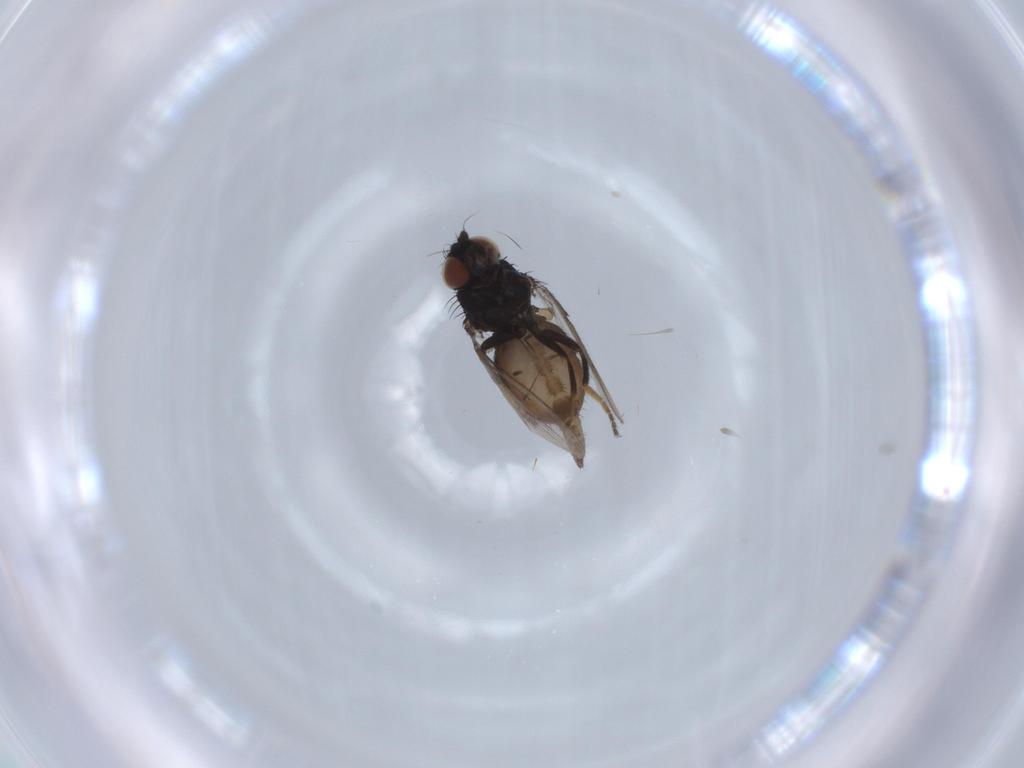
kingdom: Animalia
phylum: Arthropoda
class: Insecta
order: Diptera
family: Milichiidae
